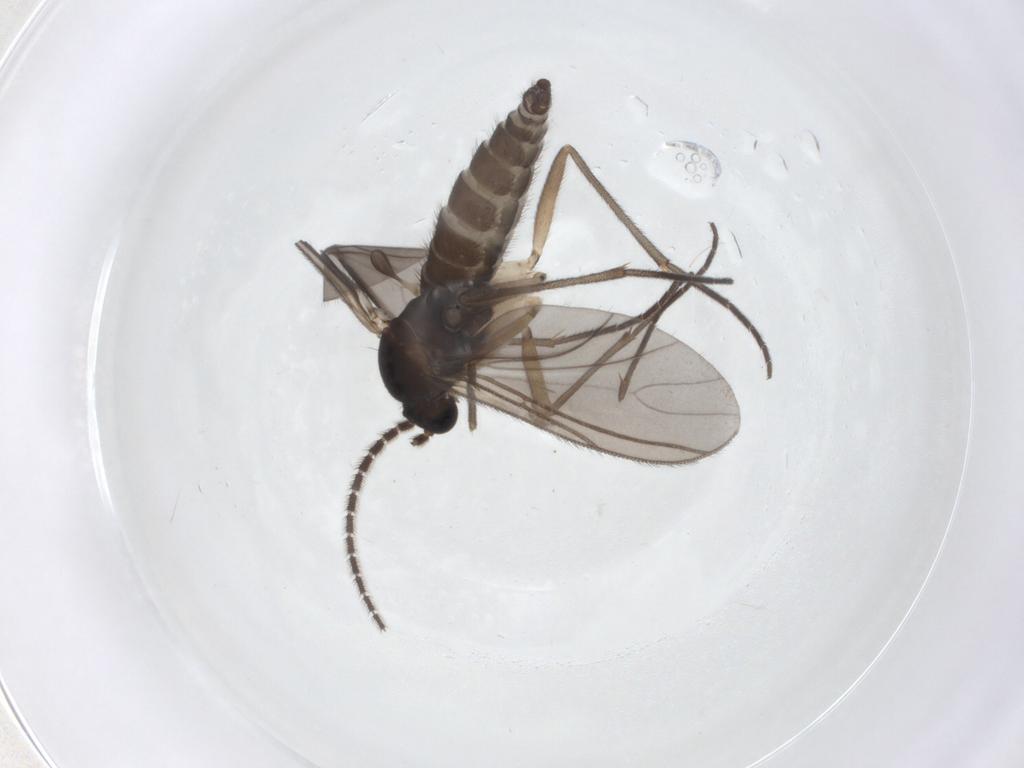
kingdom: Animalia
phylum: Arthropoda
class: Insecta
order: Diptera
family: Sciaridae
